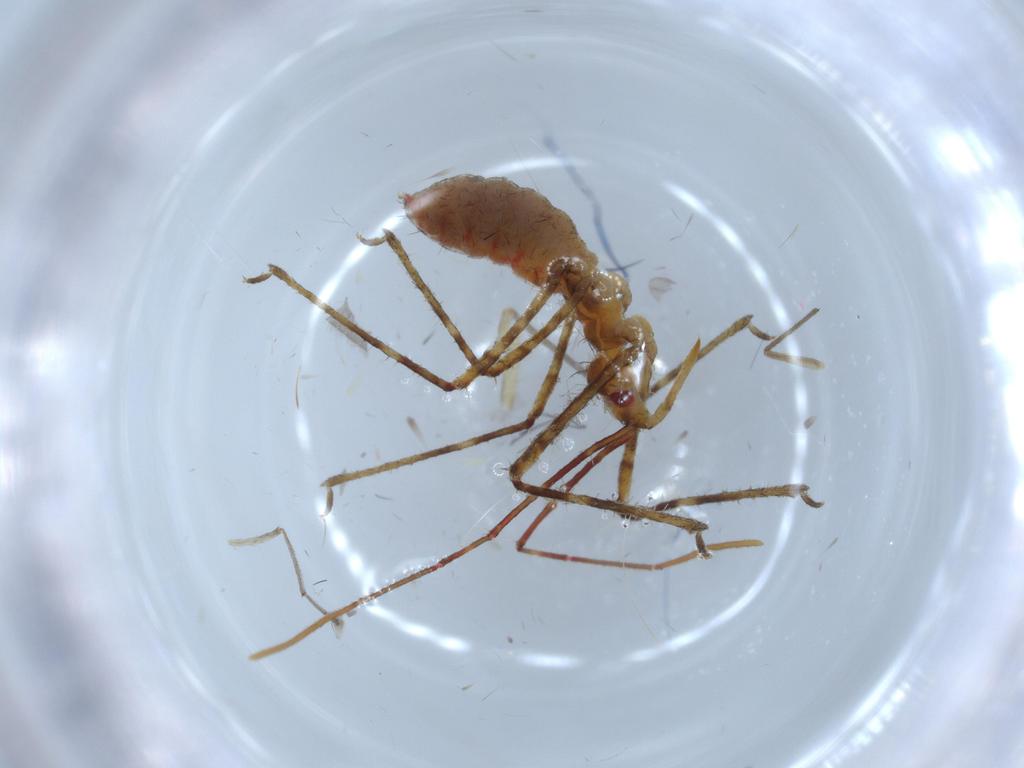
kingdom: Animalia
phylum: Arthropoda
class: Insecta
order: Hemiptera
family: Reduviidae
